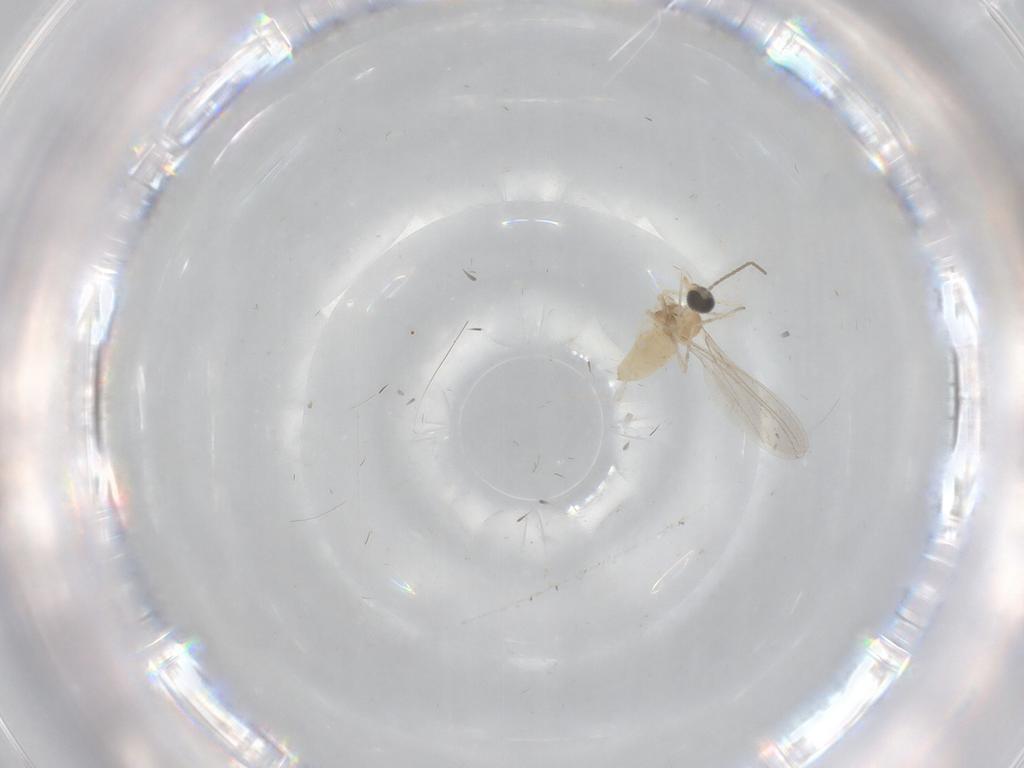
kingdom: Animalia
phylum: Arthropoda
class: Insecta
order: Diptera
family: Cecidomyiidae
